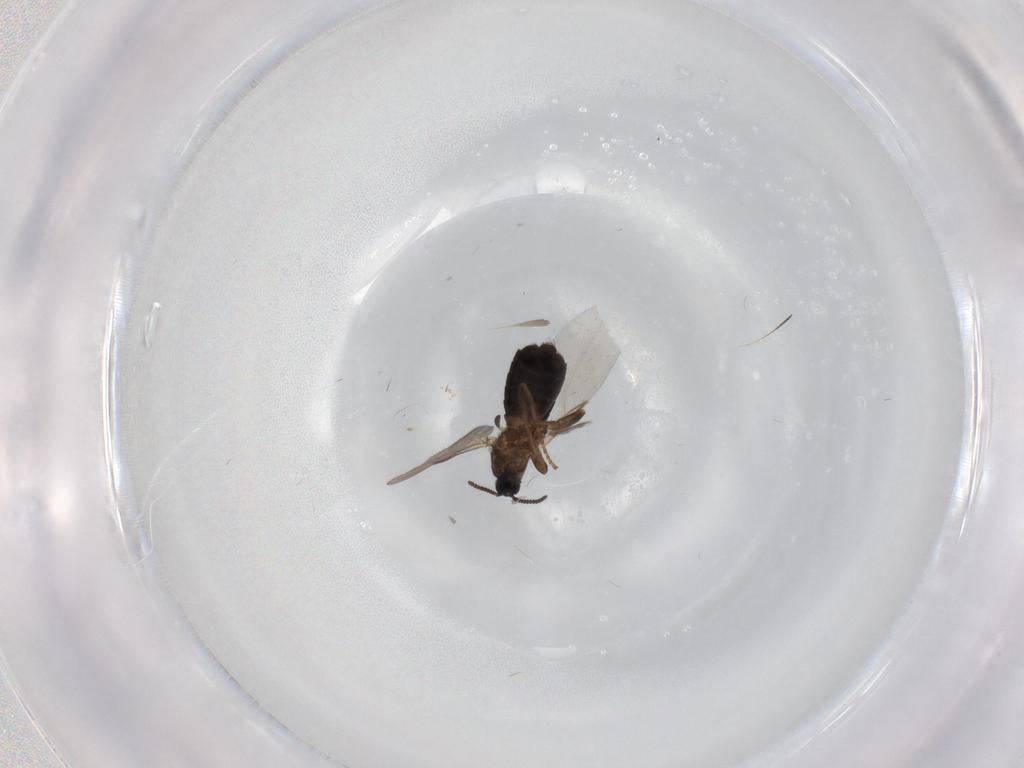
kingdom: Animalia
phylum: Arthropoda
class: Insecta
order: Diptera
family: Scatopsidae
